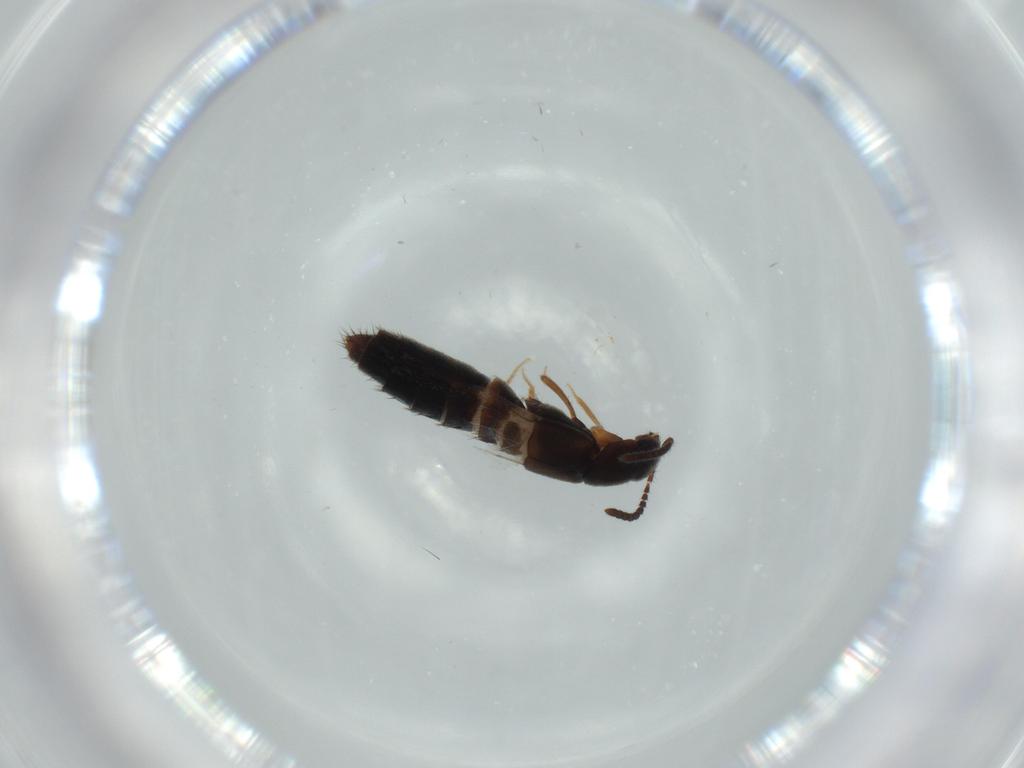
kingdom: Animalia
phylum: Arthropoda
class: Insecta
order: Coleoptera
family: Elateridae
